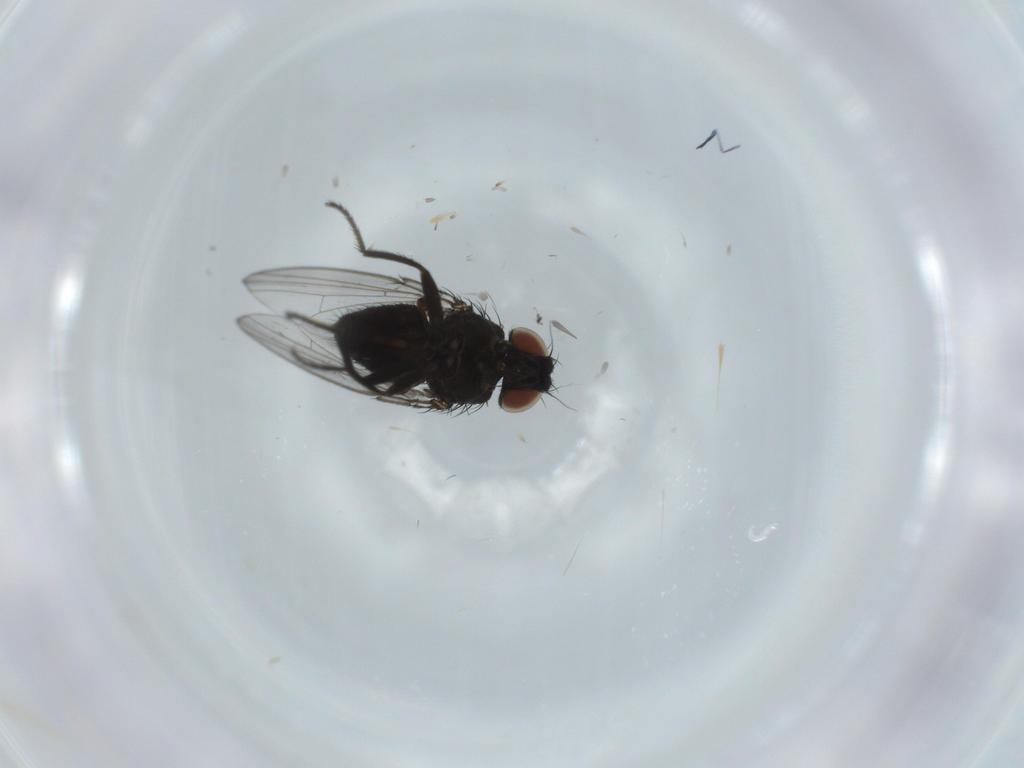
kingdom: Animalia
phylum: Arthropoda
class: Insecta
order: Diptera
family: Milichiidae
